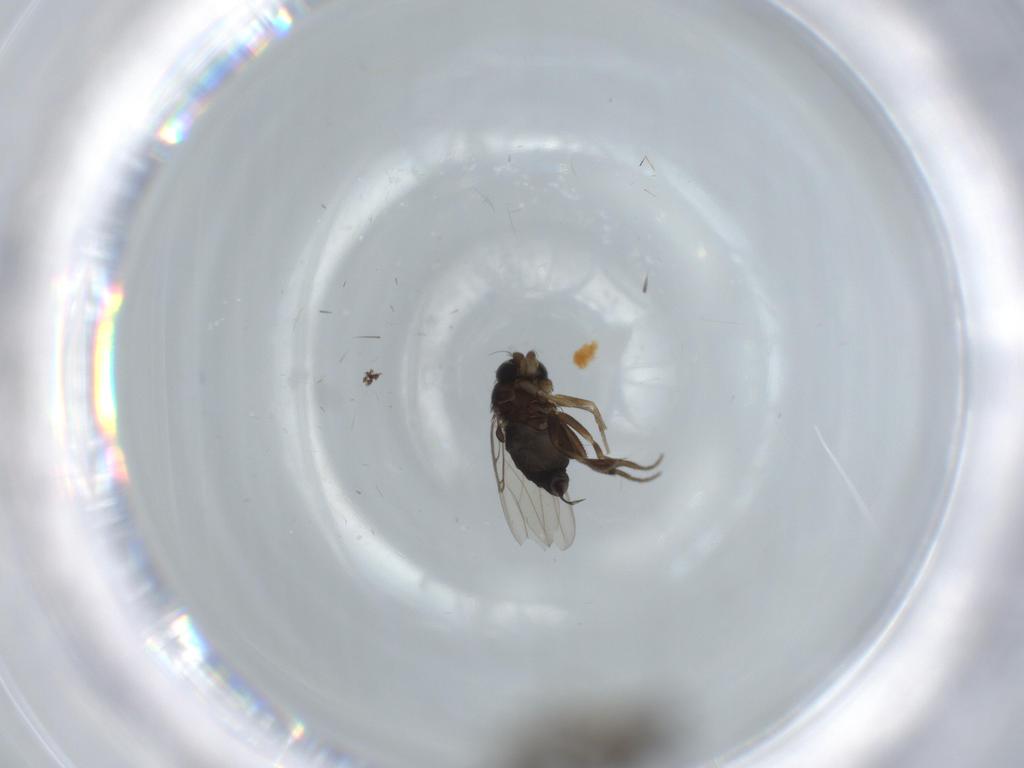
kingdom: Animalia
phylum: Arthropoda
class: Insecta
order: Diptera
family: Phoridae
